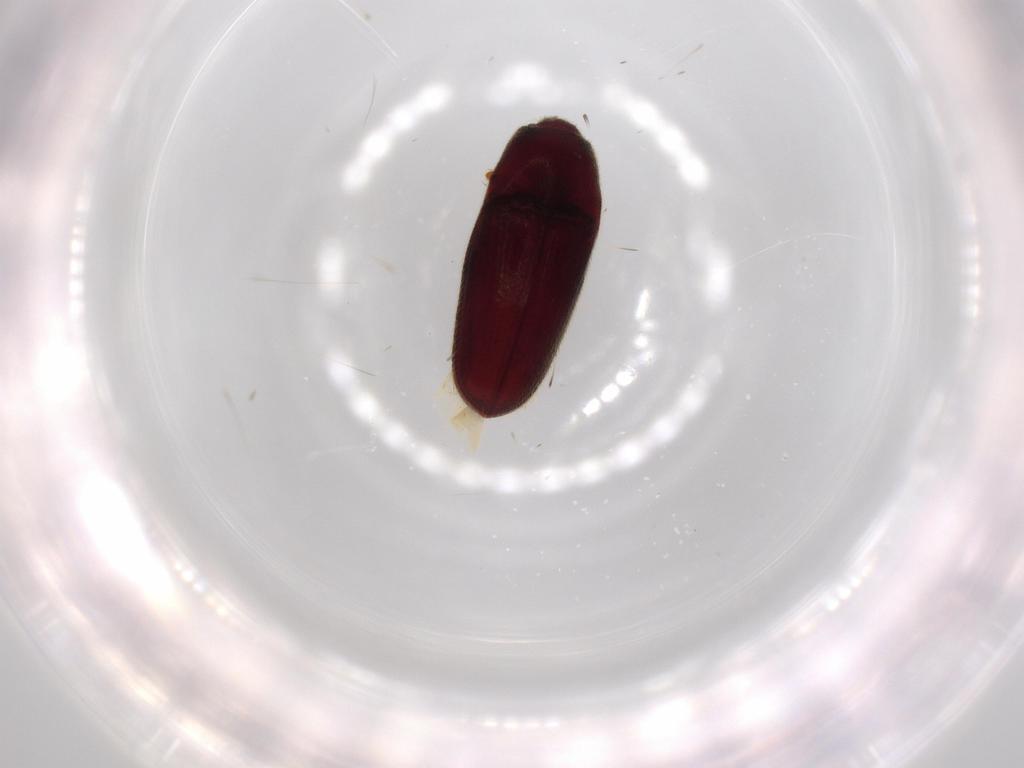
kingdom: Animalia
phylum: Arthropoda
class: Insecta
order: Coleoptera
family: Throscidae
